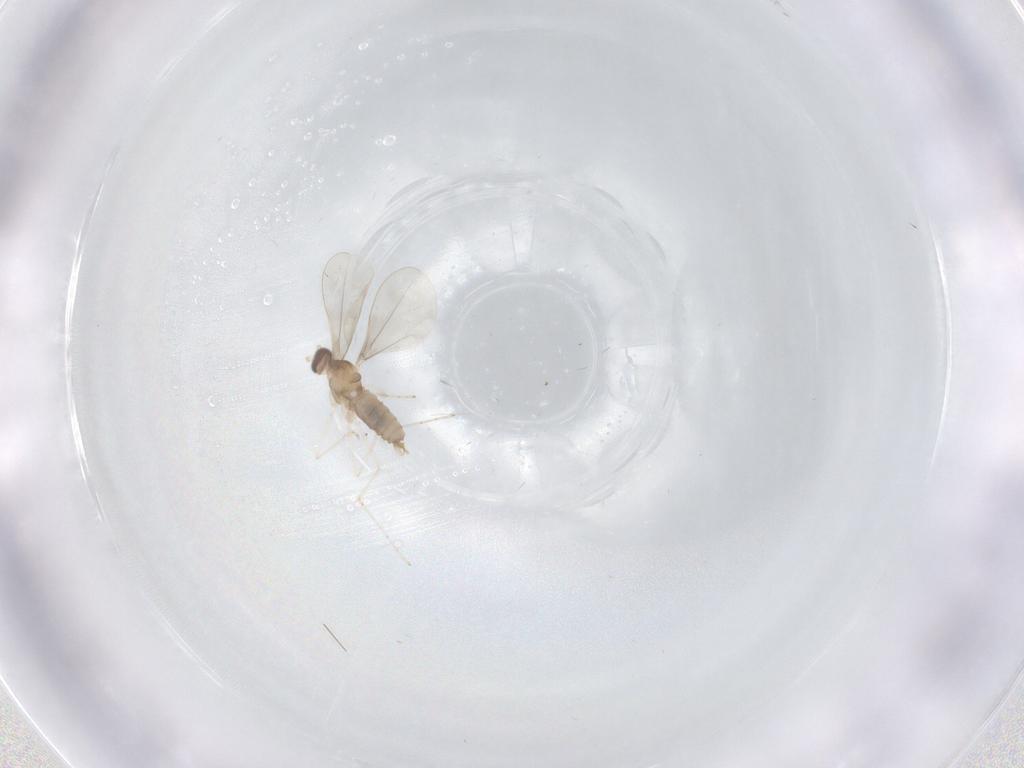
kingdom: Animalia
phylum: Arthropoda
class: Insecta
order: Diptera
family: Cecidomyiidae
